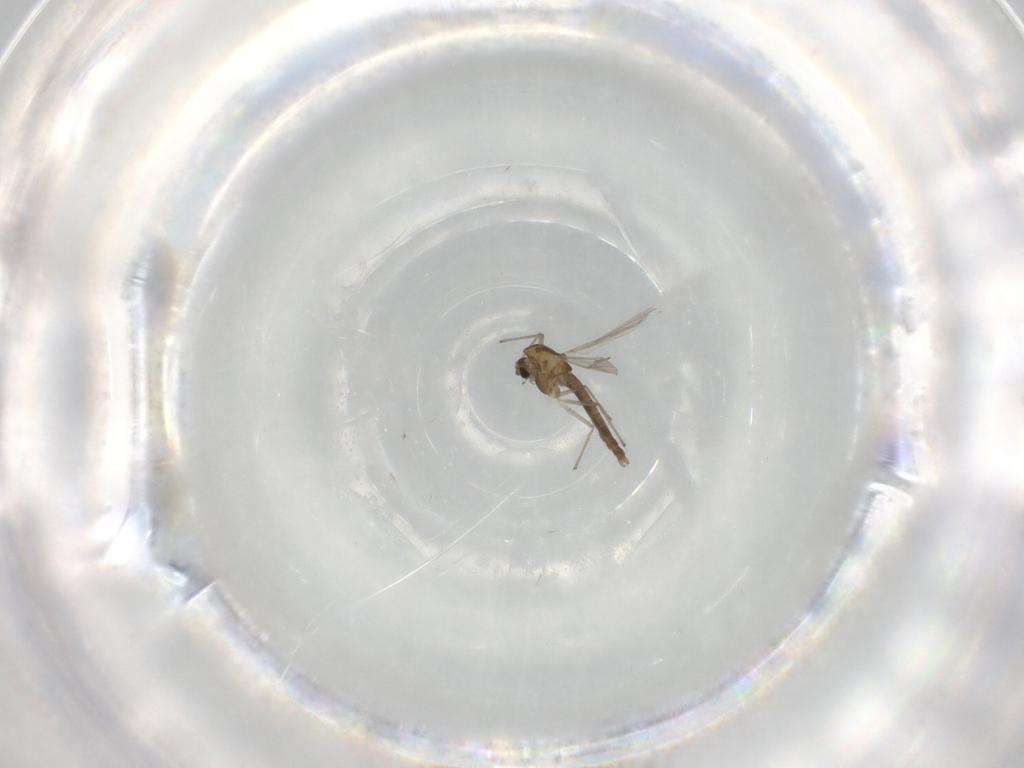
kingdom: Animalia
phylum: Arthropoda
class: Insecta
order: Diptera
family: Chironomidae
